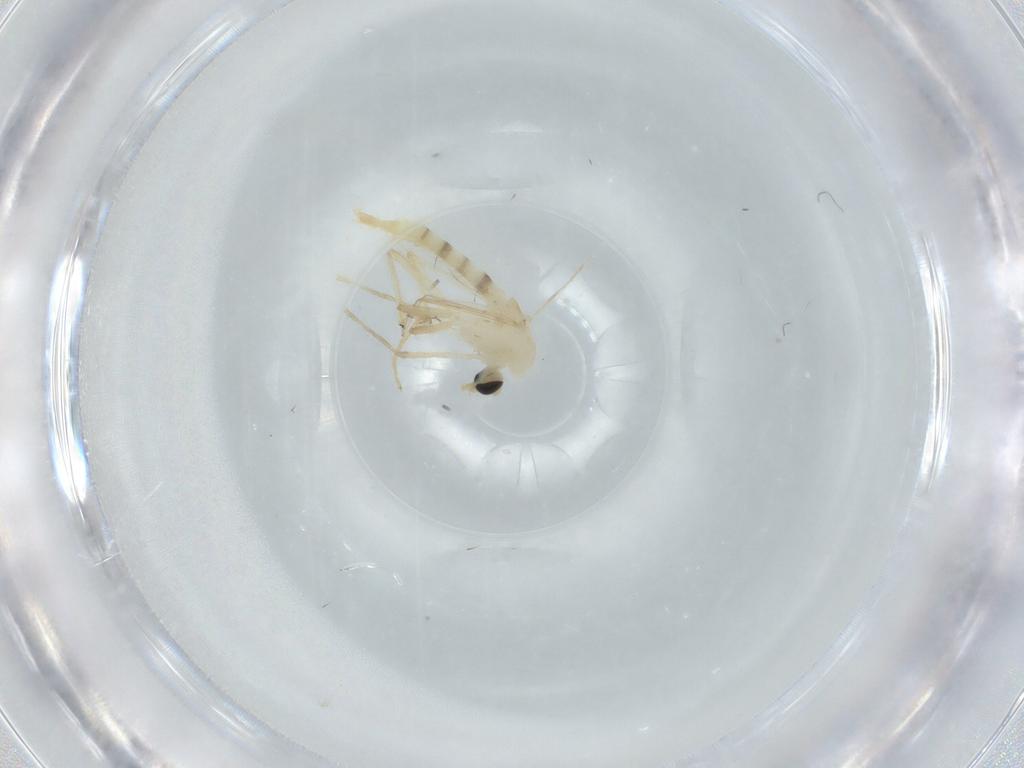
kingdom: Animalia
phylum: Arthropoda
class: Insecta
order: Diptera
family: Chironomidae
